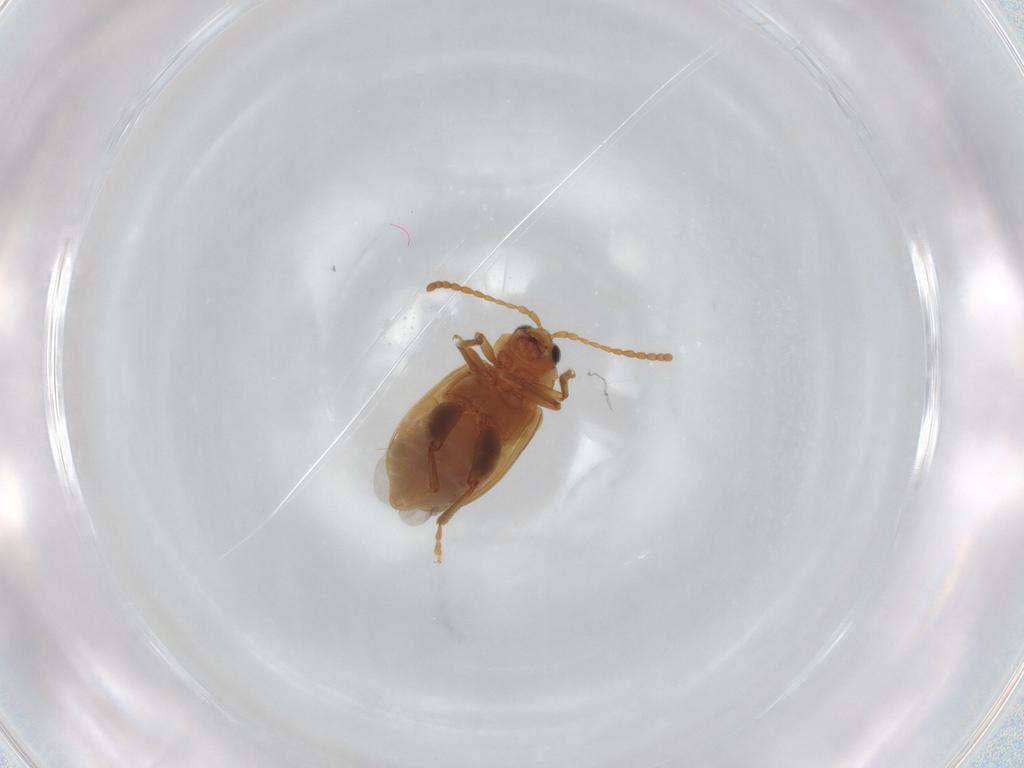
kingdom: Animalia
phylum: Arthropoda
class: Insecta
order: Coleoptera
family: Chrysomelidae
